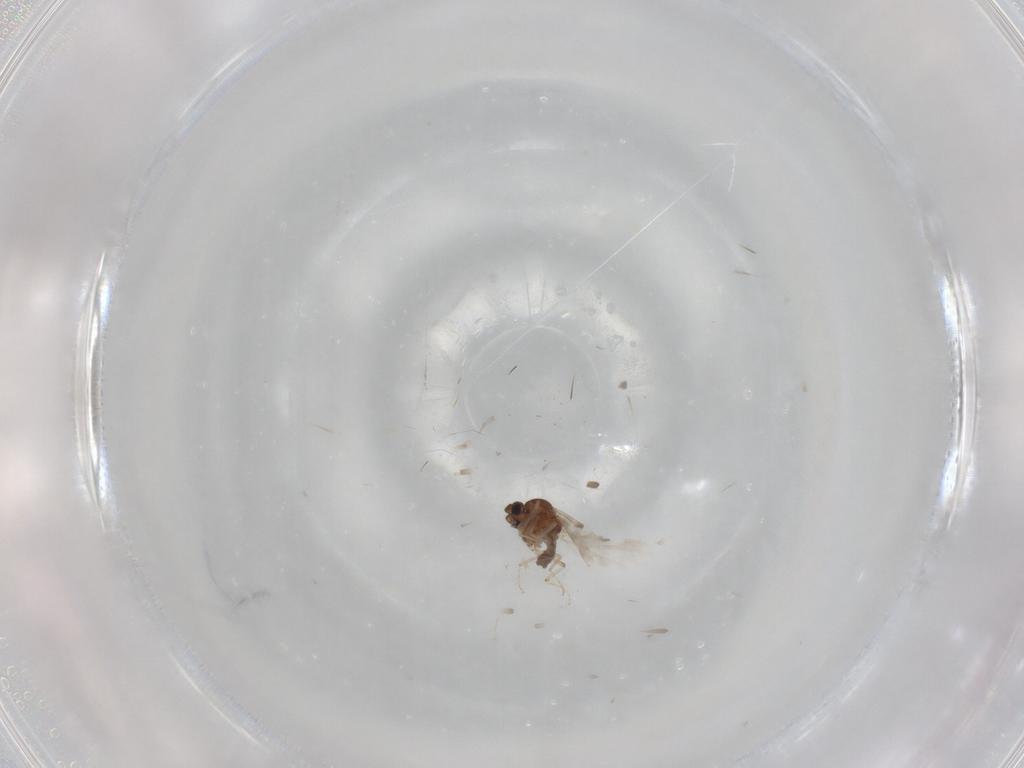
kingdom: Animalia
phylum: Arthropoda
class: Insecta
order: Diptera
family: Ceratopogonidae
